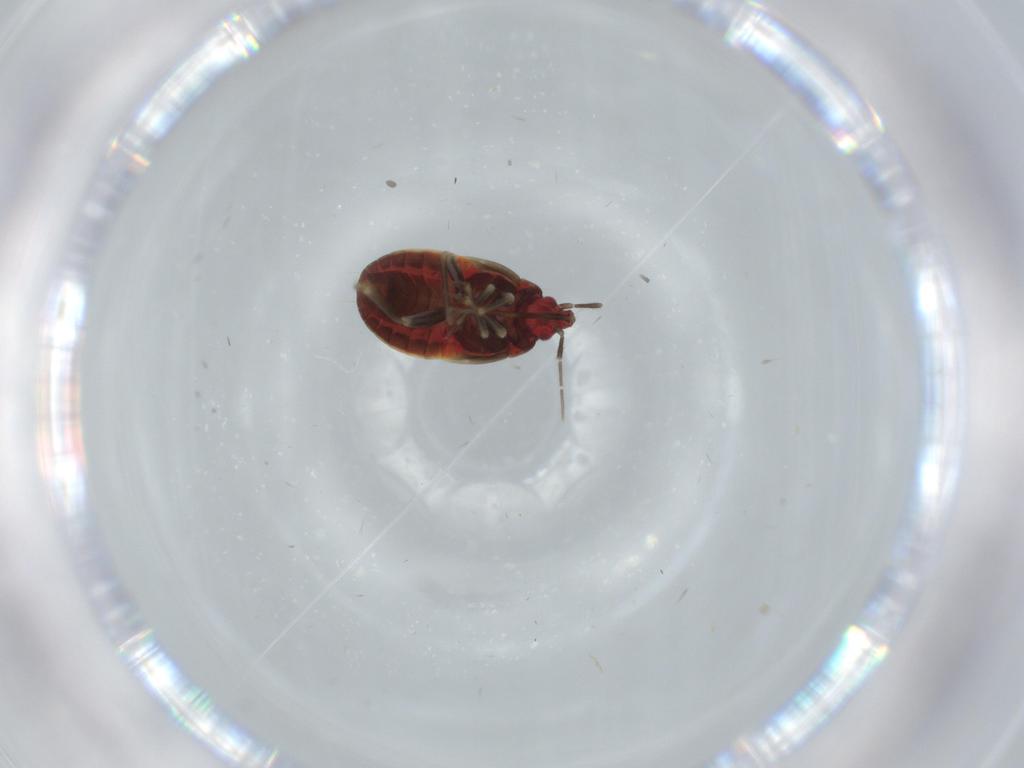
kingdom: Animalia
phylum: Arthropoda
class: Insecta
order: Hemiptera
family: Anthocoridae
